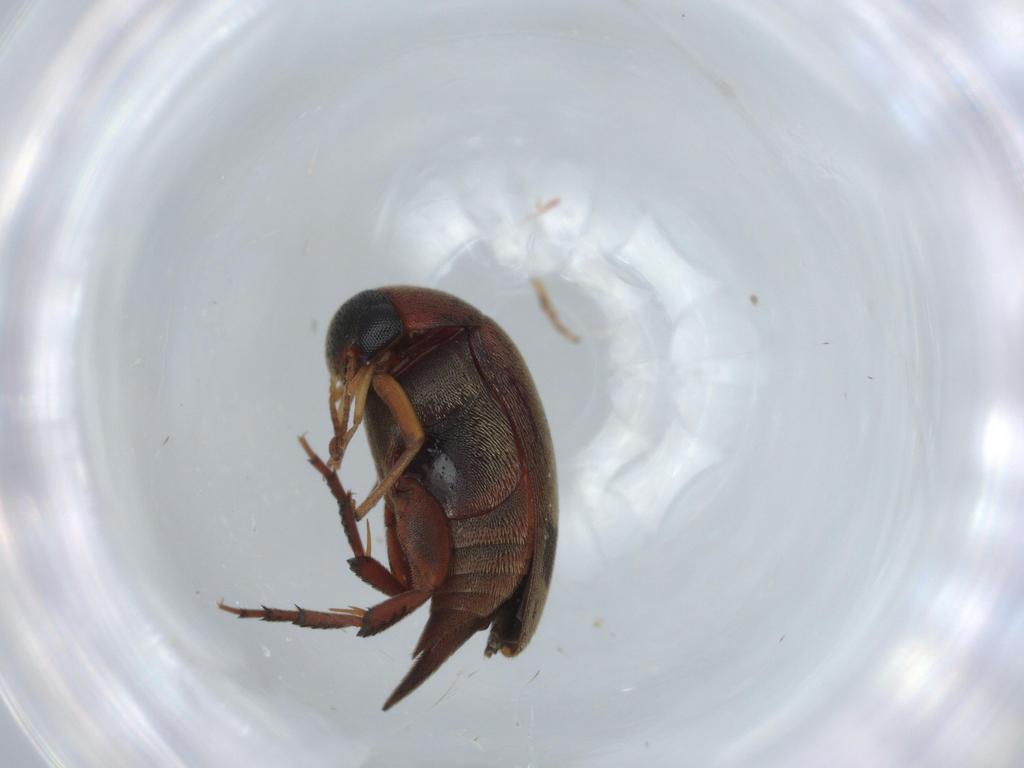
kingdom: Animalia
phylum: Arthropoda
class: Insecta
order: Coleoptera
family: Mordellidae
